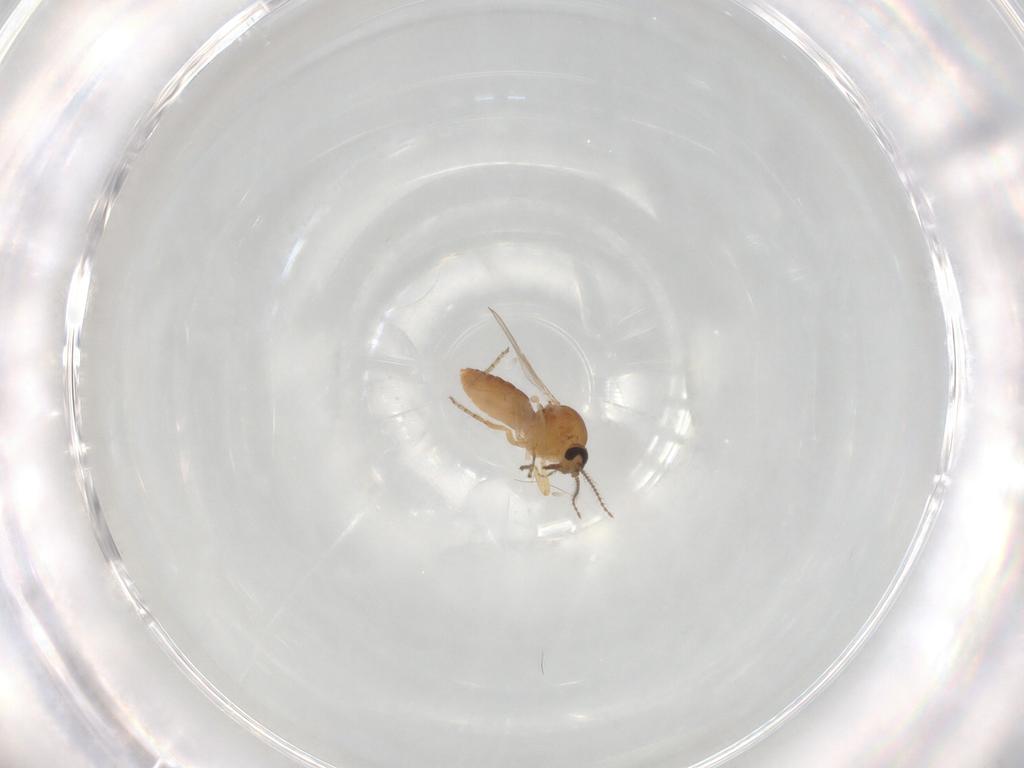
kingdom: Animalia
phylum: Arthropoda
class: Insecta
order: Diptera
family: Ceratopogonidae
